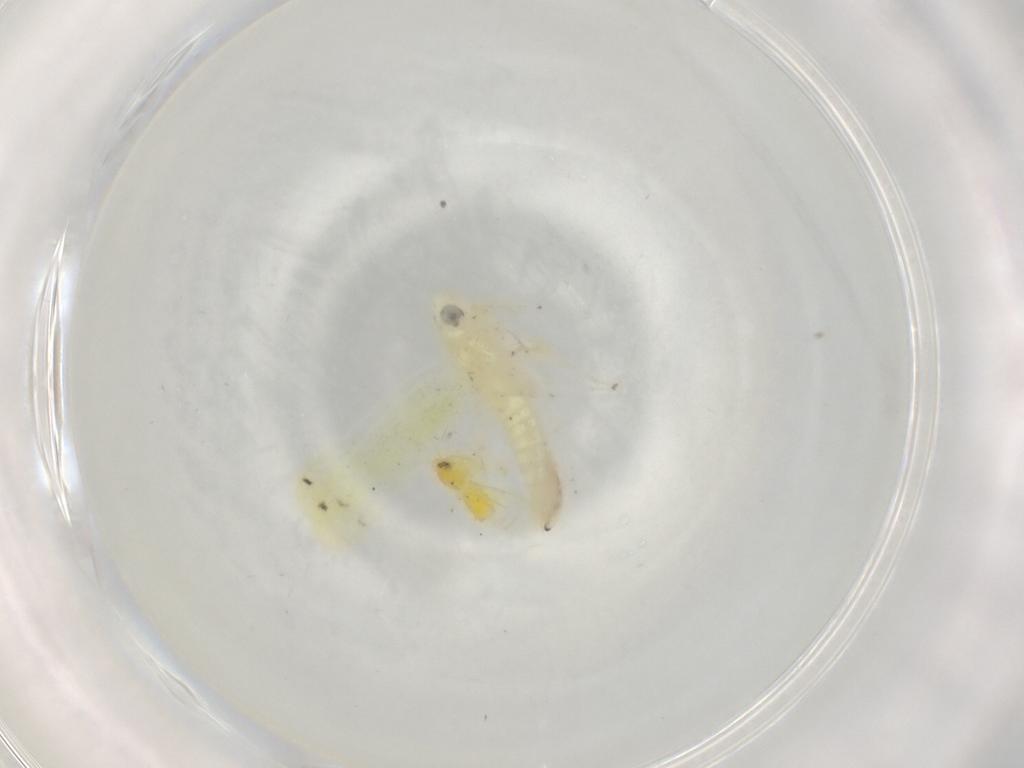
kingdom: Animalia
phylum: Arthropoda
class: Insecta
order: Hemiptera
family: Cicadellidae
